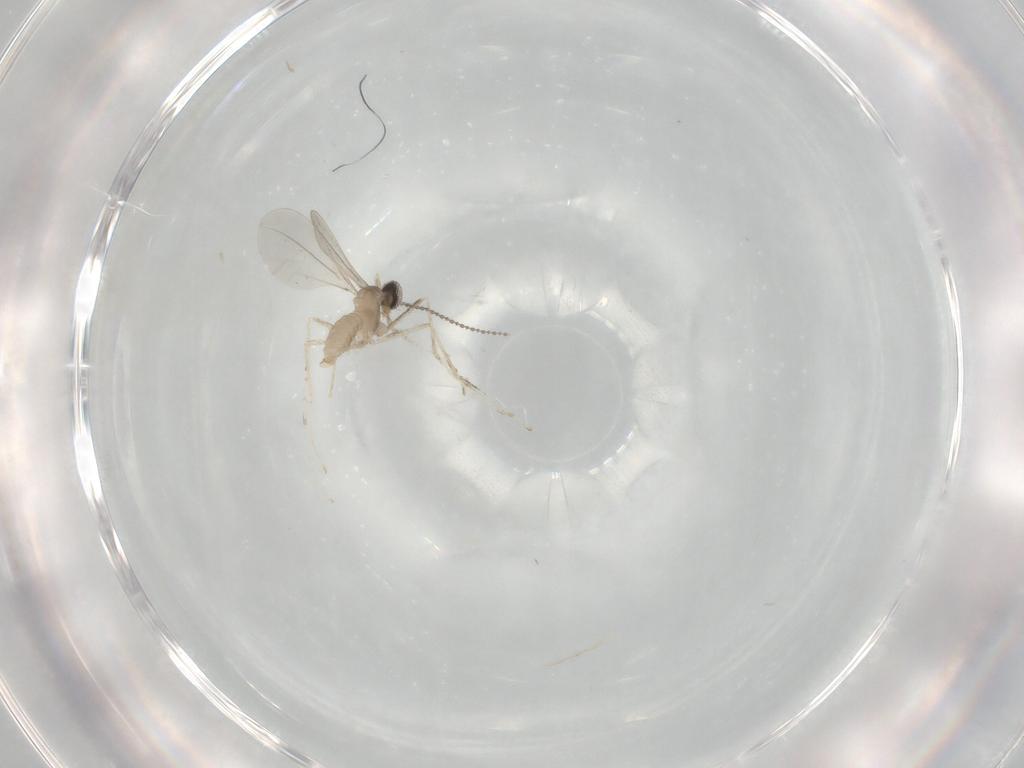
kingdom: Animalia
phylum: Arthropoda
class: Insecta
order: Diptera
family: Cecidomyiidae
